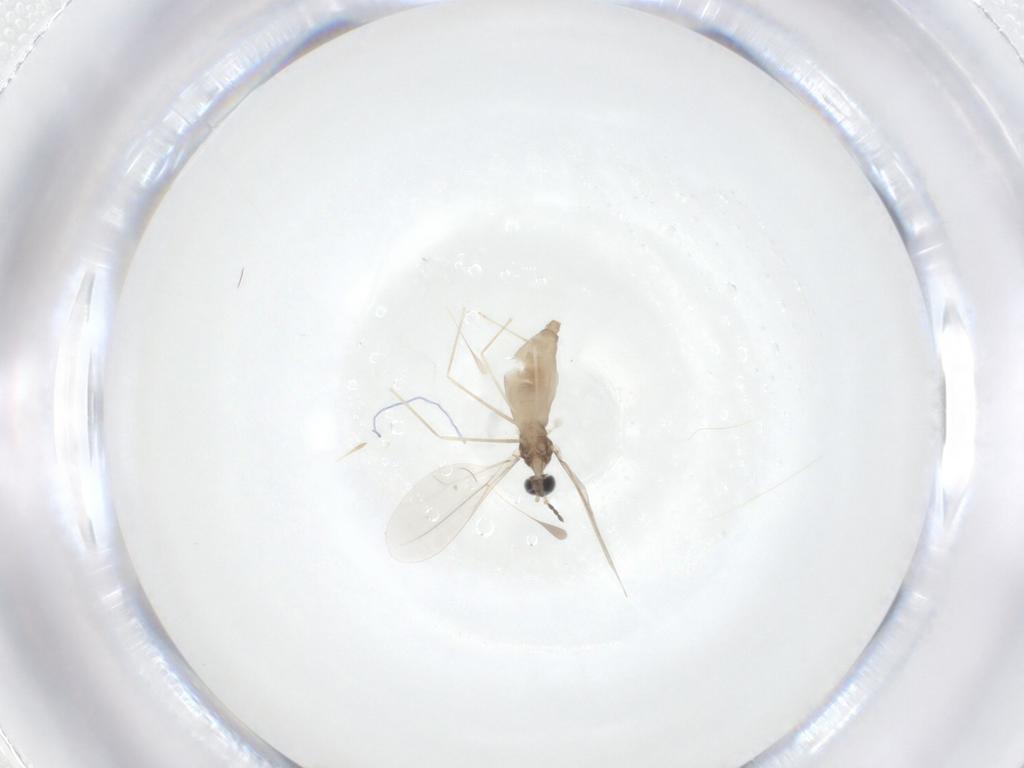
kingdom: Animalia
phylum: Arthropoda
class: Insecta
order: Diptera
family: Cecidomyiidae
